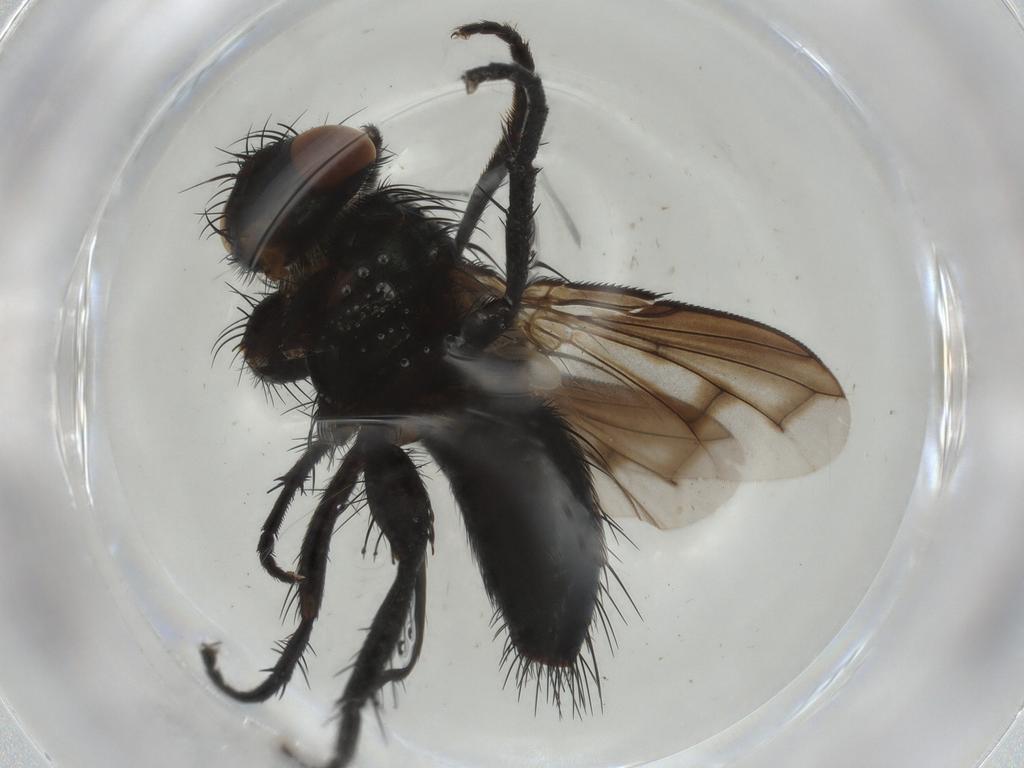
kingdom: Animalia
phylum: Arthropoda
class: Insecta
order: Diptera
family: Tachinidae
